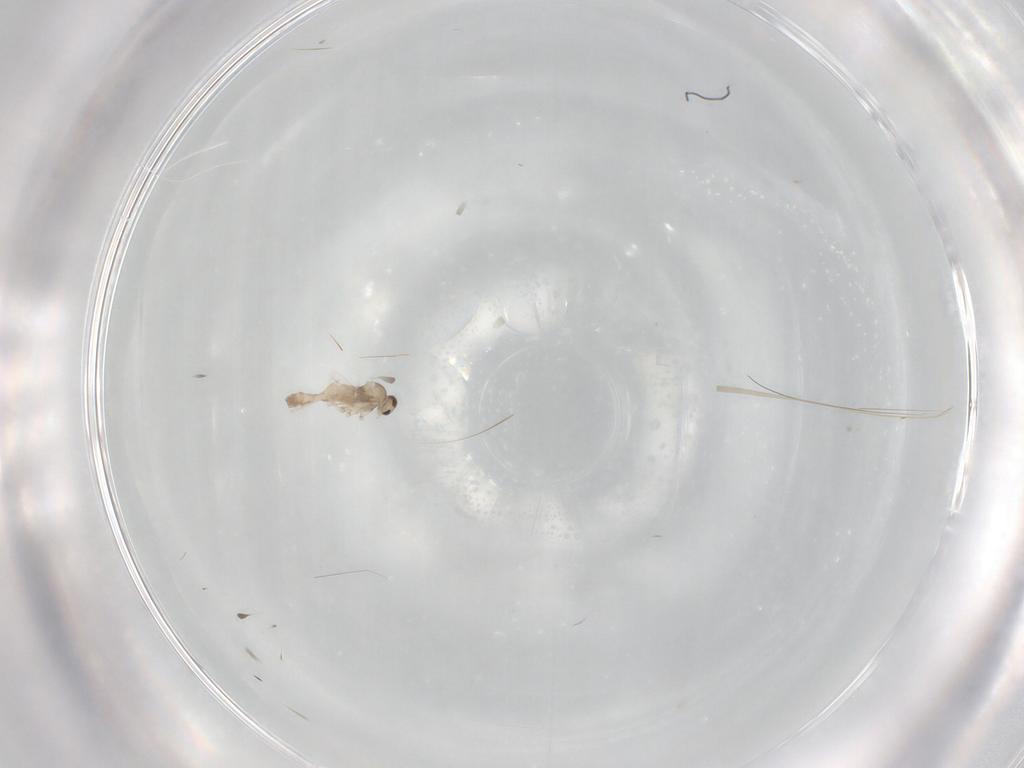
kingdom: Animalia
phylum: Arthropoda
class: Insecta
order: Diptera
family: Cecidomyiidae
